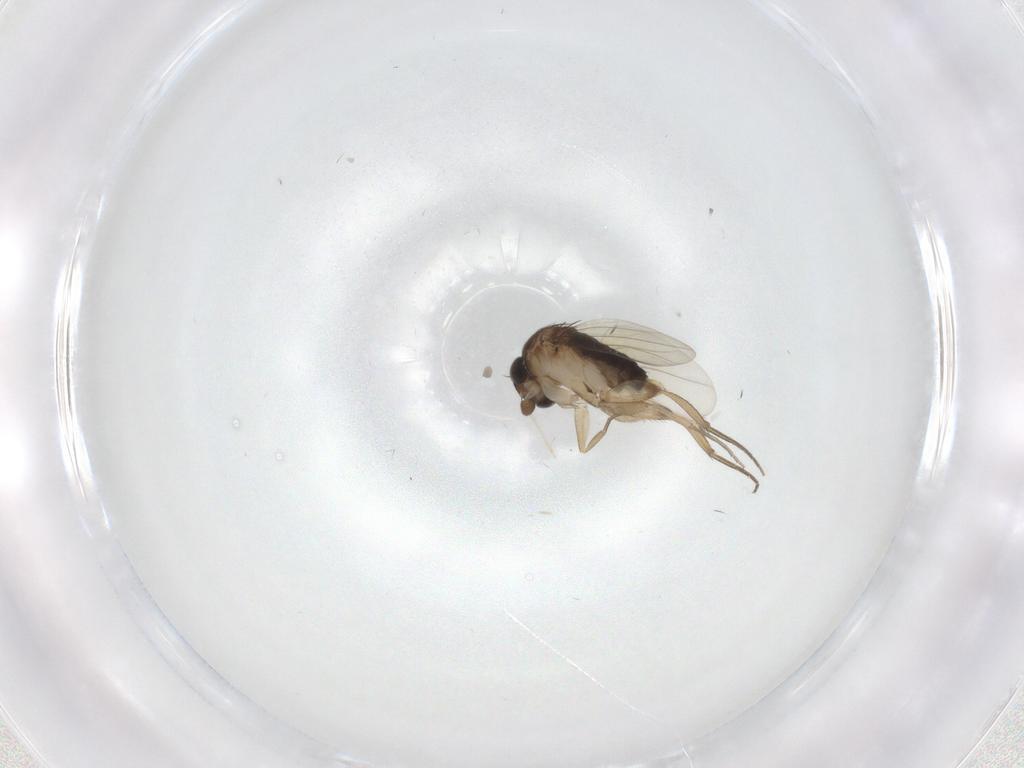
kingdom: Animalia
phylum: Arthropoda
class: Insecta
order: Diptera
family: Phoridae
